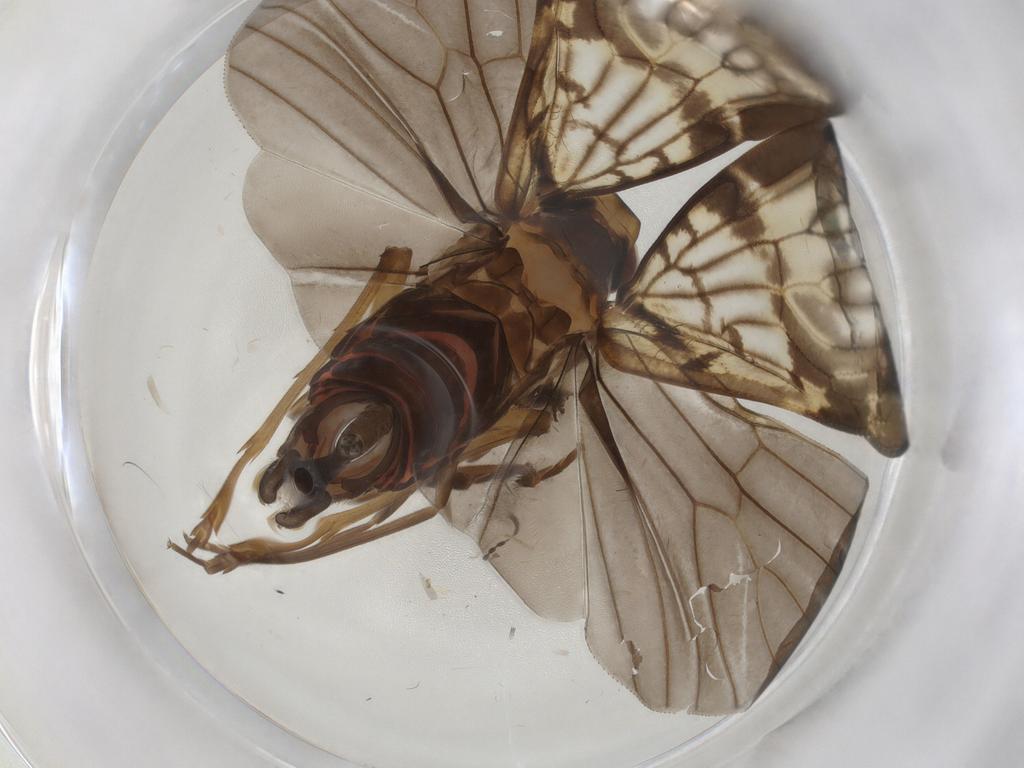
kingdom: Animalia
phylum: Arthropoda
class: Insecta
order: Hemiptera
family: Cixiidae
